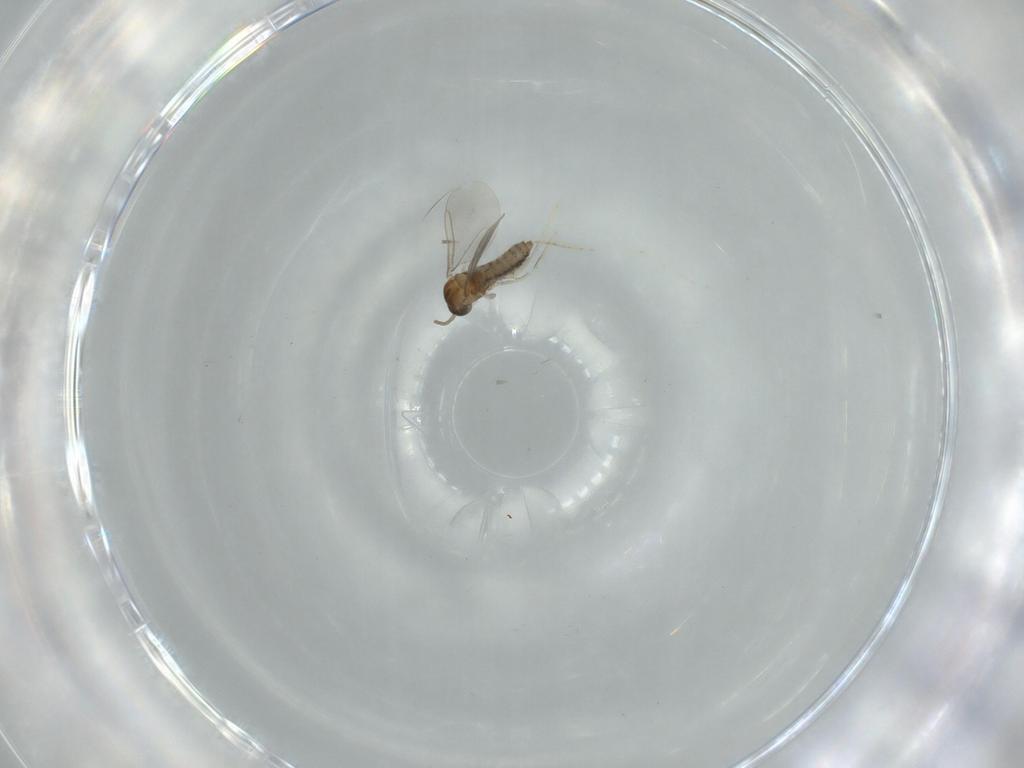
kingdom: Animalia
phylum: Arthropoda
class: Insecta
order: Diptera
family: Cecidomyiidae
